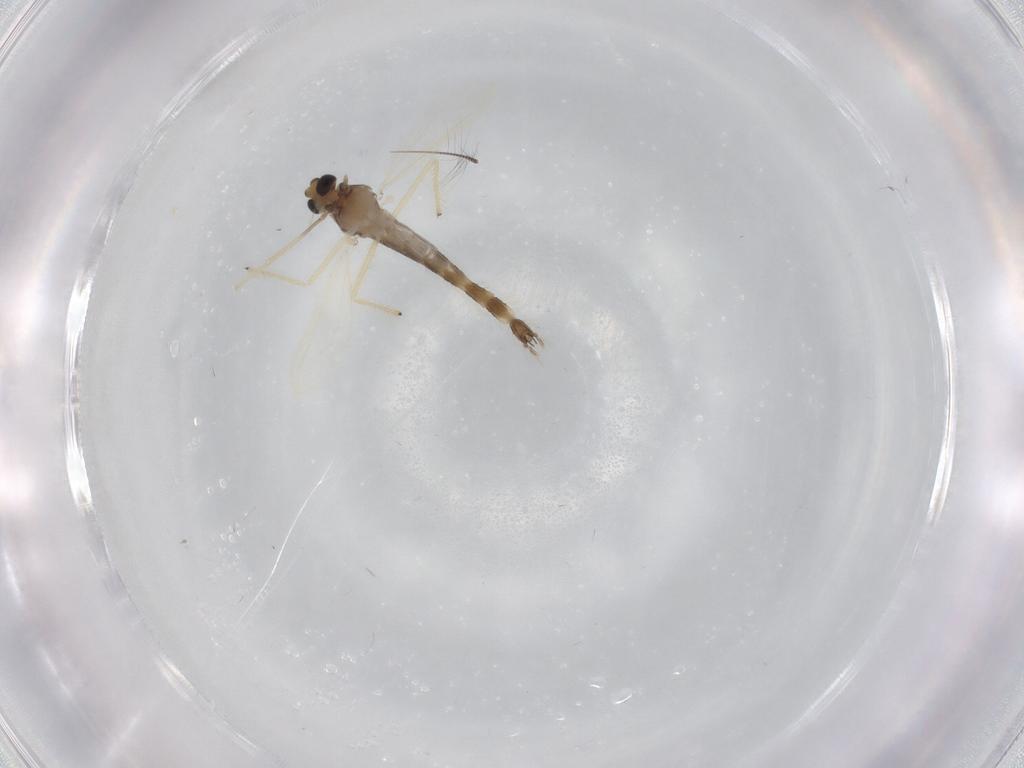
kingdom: Animalia
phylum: Arthropoda
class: Insecta
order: Diptera
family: Chironomidae
